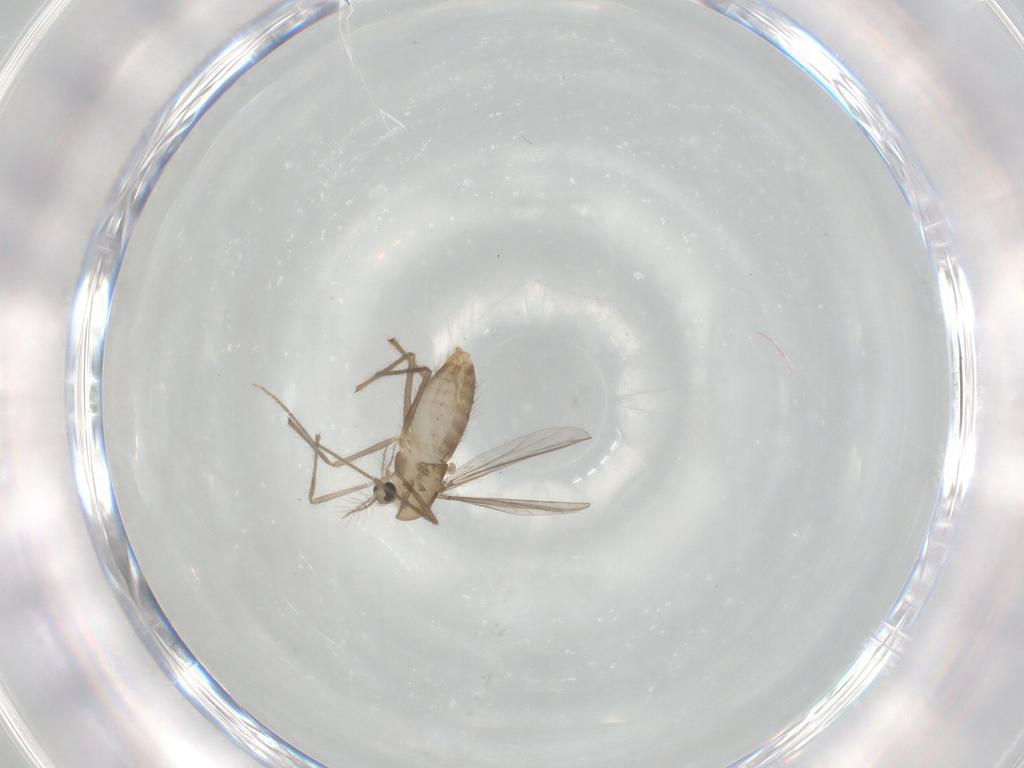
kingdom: Animalia
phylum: Arthropoda
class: Insecta
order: Diptera
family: Chironomidae
